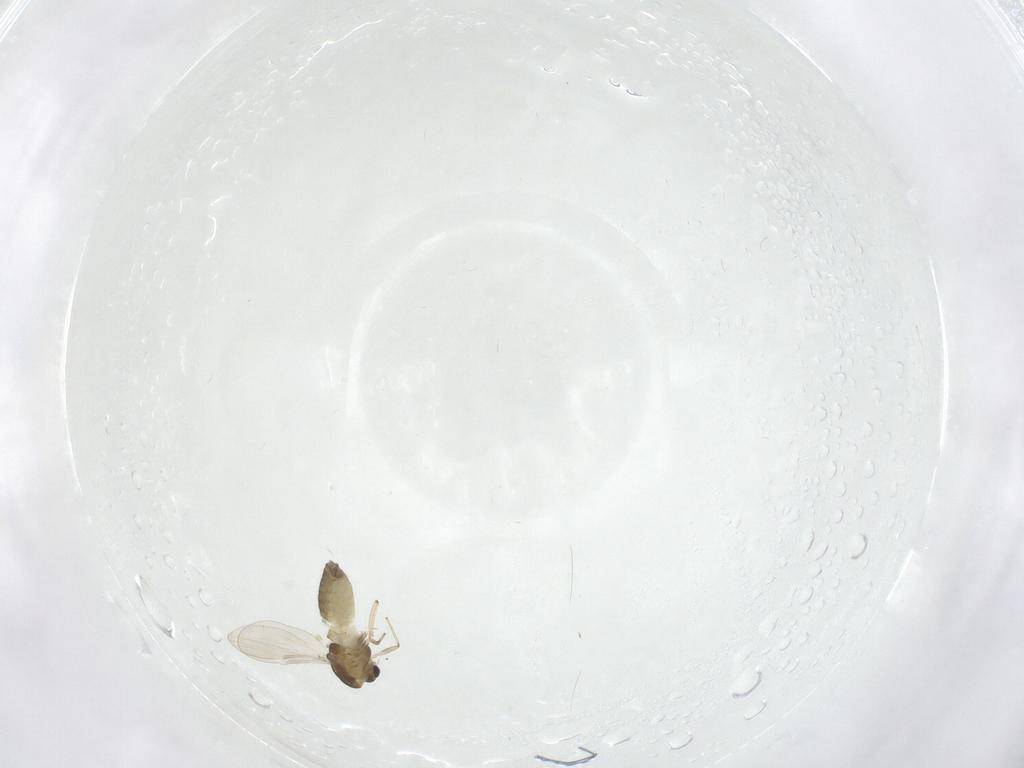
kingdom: Animalia
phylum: Arthropoda
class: Insecta
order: Diptera
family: Chironomidae
